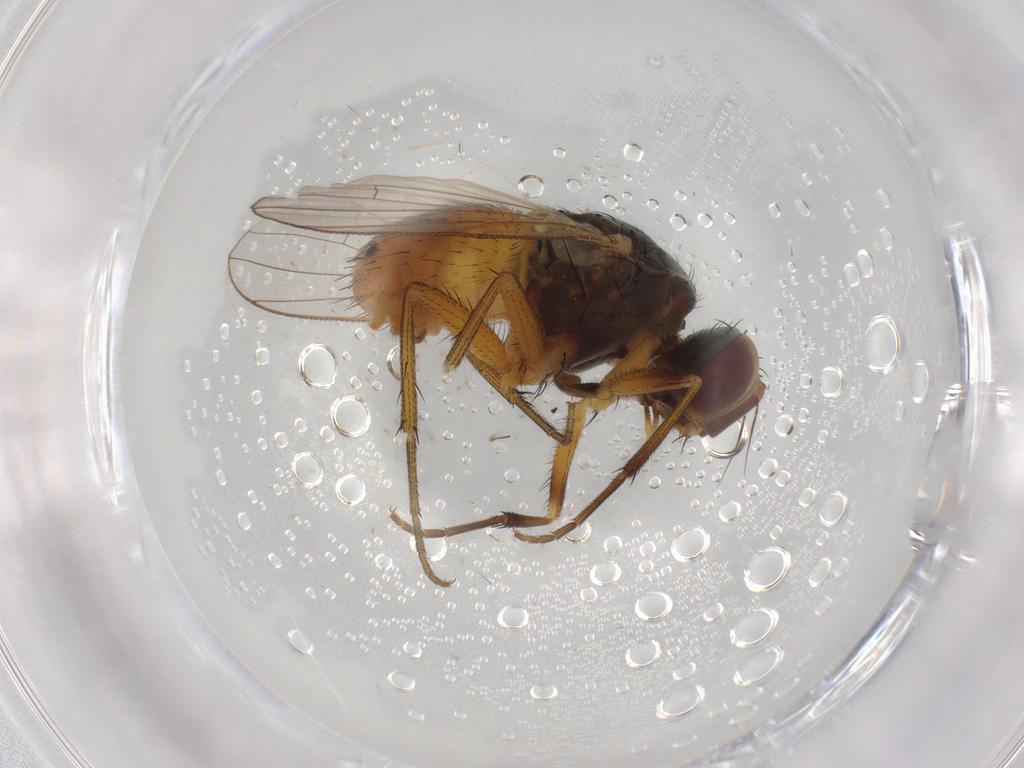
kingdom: Animalia
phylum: Arthropoda
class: Insecta
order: Diptera
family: Muscidae
